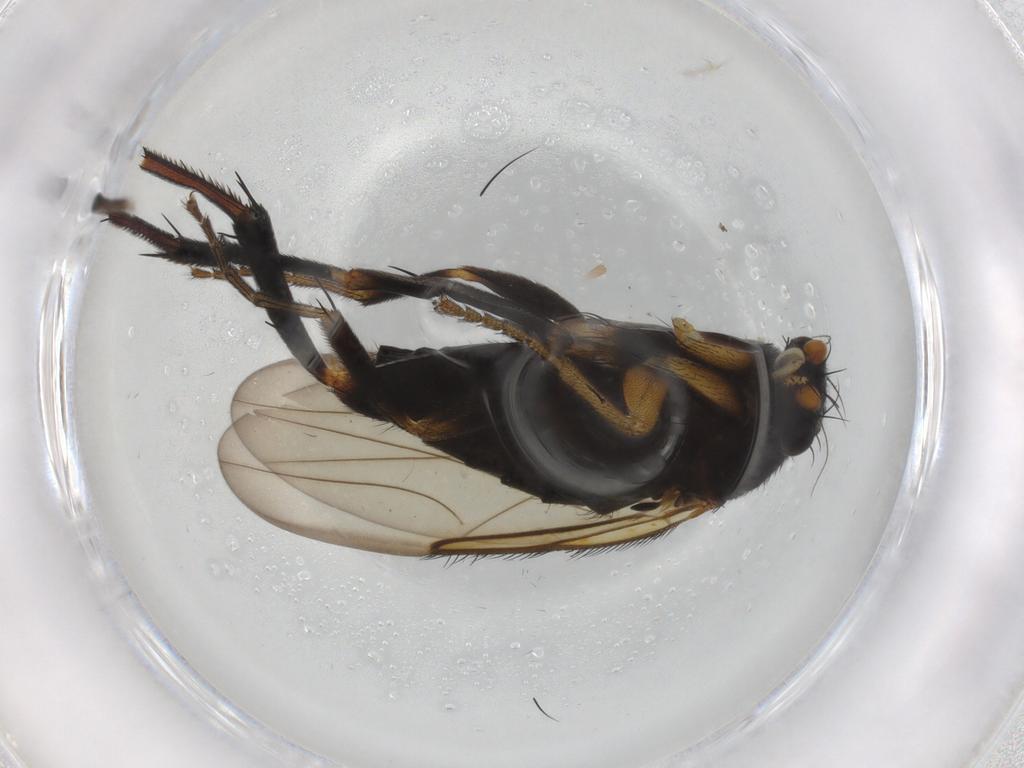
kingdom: Animalia
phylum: Arthropoda
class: Insecta
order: Diptera
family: Phoridae
